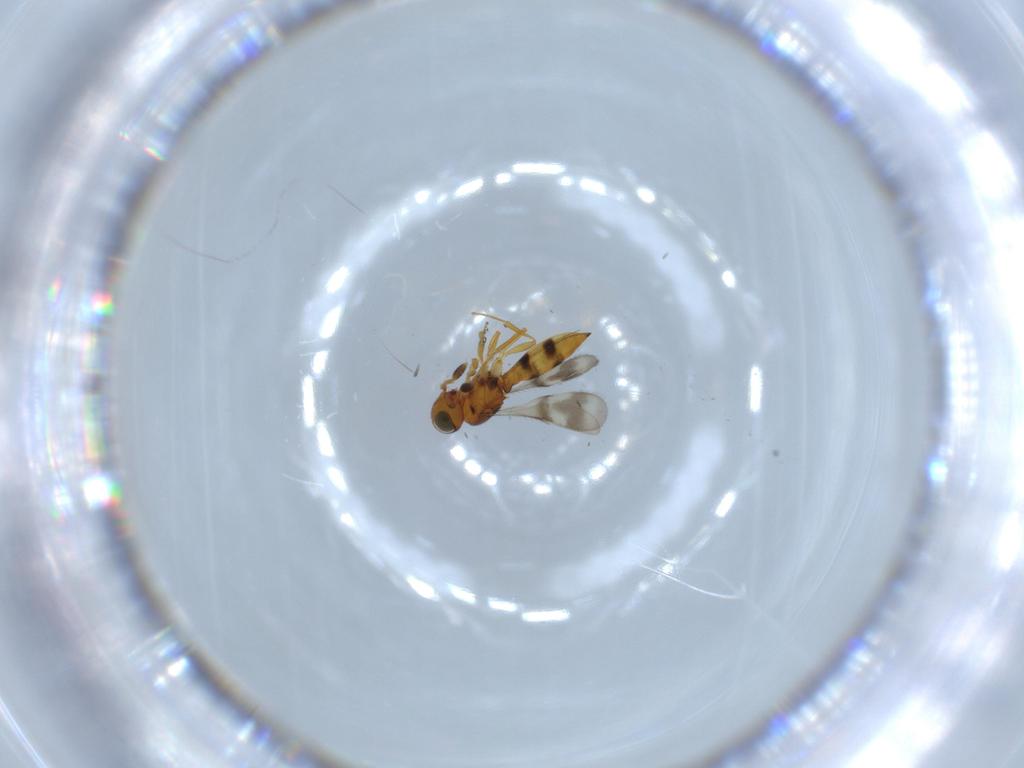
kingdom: Animalia
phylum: Arthropoda
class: Insecta
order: Hymenoptera
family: Scelionidae
